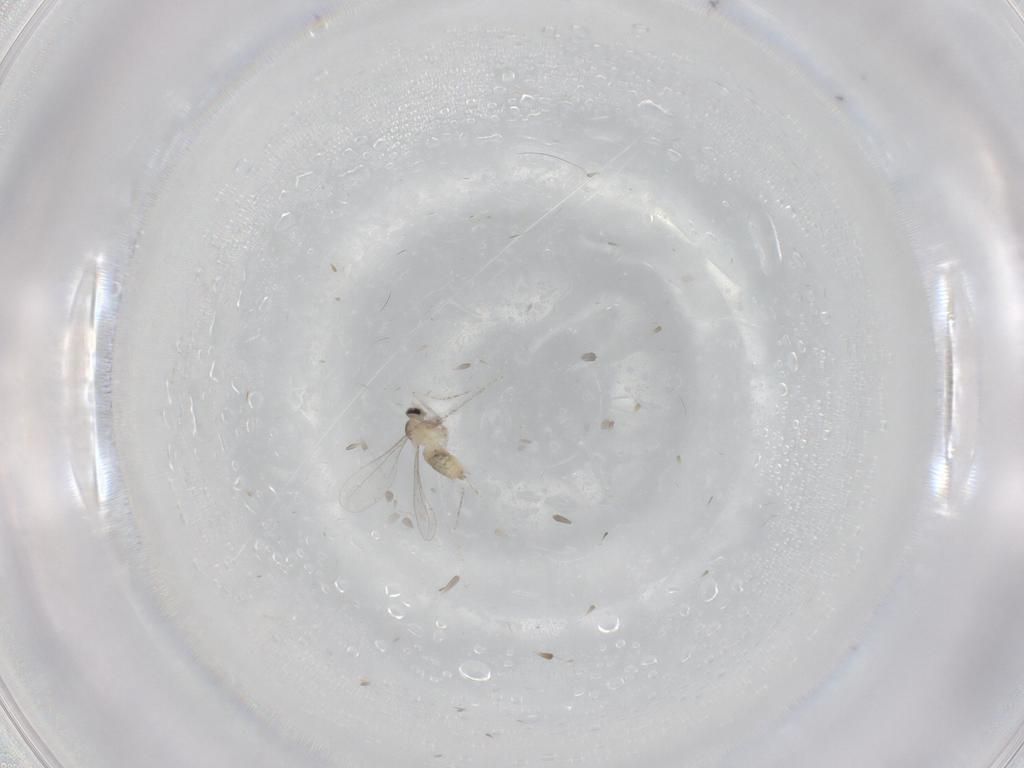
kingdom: Animalia
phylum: Arthropoda
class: Insecta
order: Diptera
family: Cecidomyiidae
